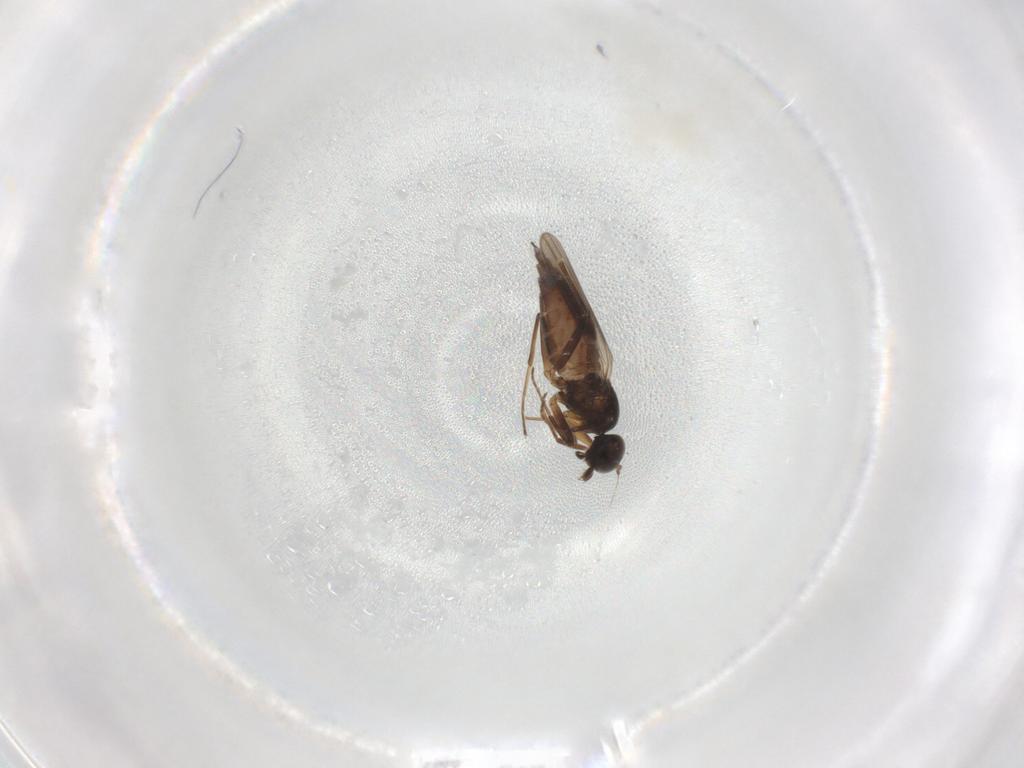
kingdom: Animalia
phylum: Arthropoda
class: Insecta
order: Diptera
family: Hybotidae
